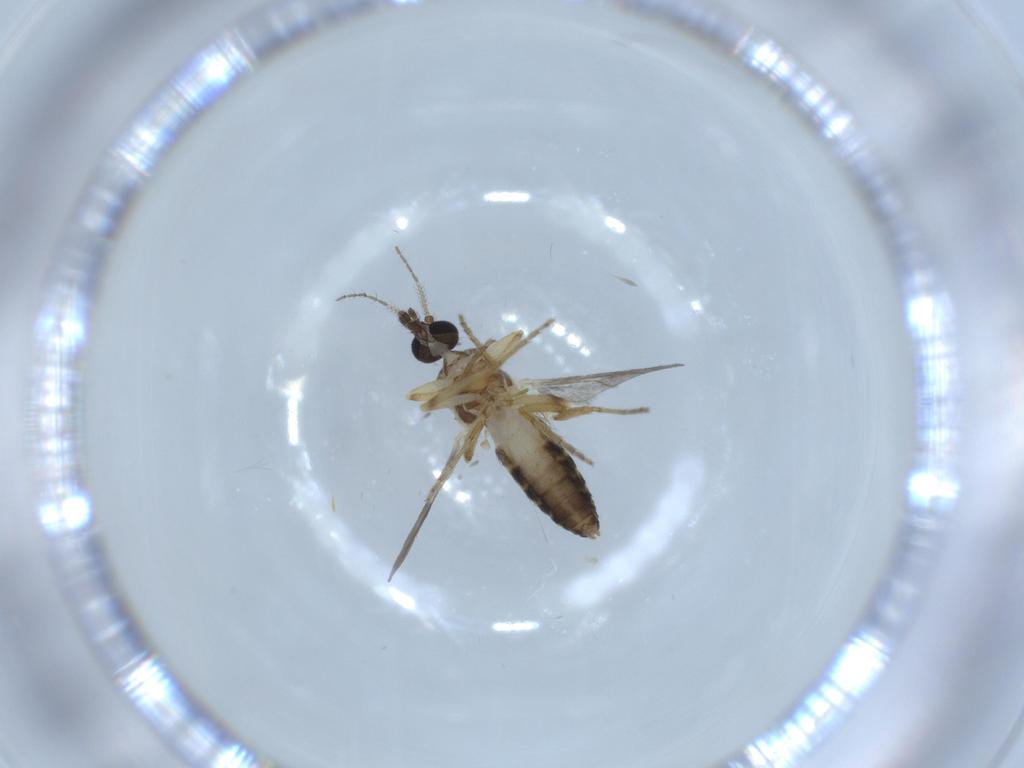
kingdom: Animalia
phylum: Arthropoda
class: Insecta
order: Diptera
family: Ceratopogonidae
